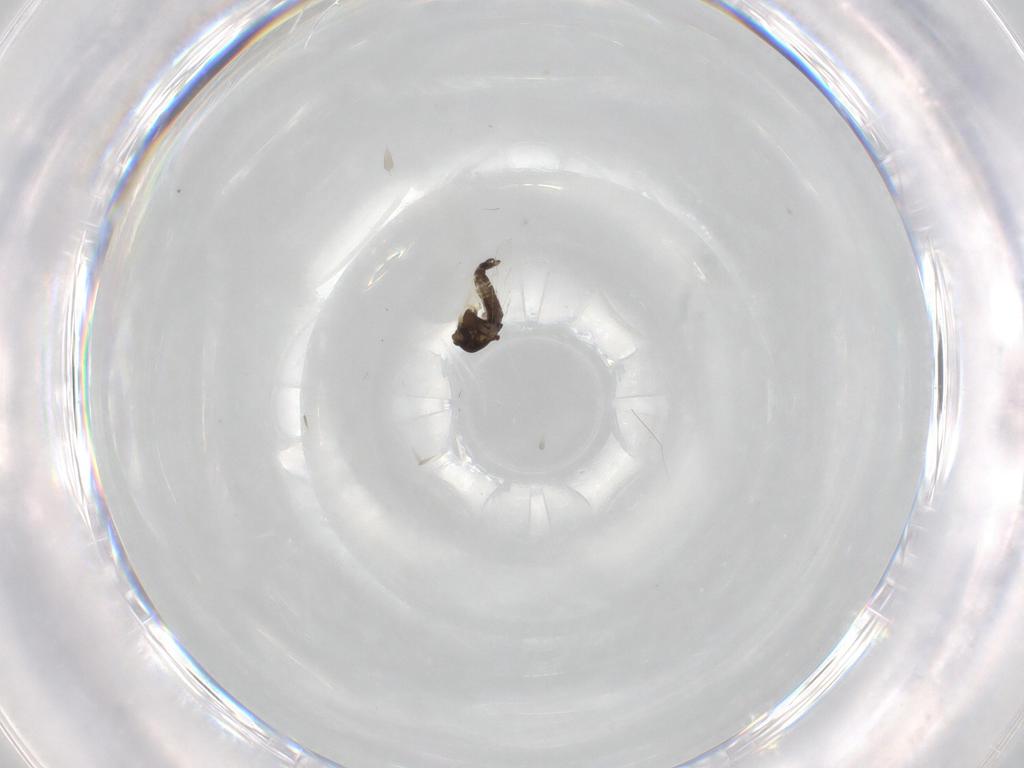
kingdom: Animalia
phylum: Arthropoda
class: Insecta
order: Diptera
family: Chironomidae
